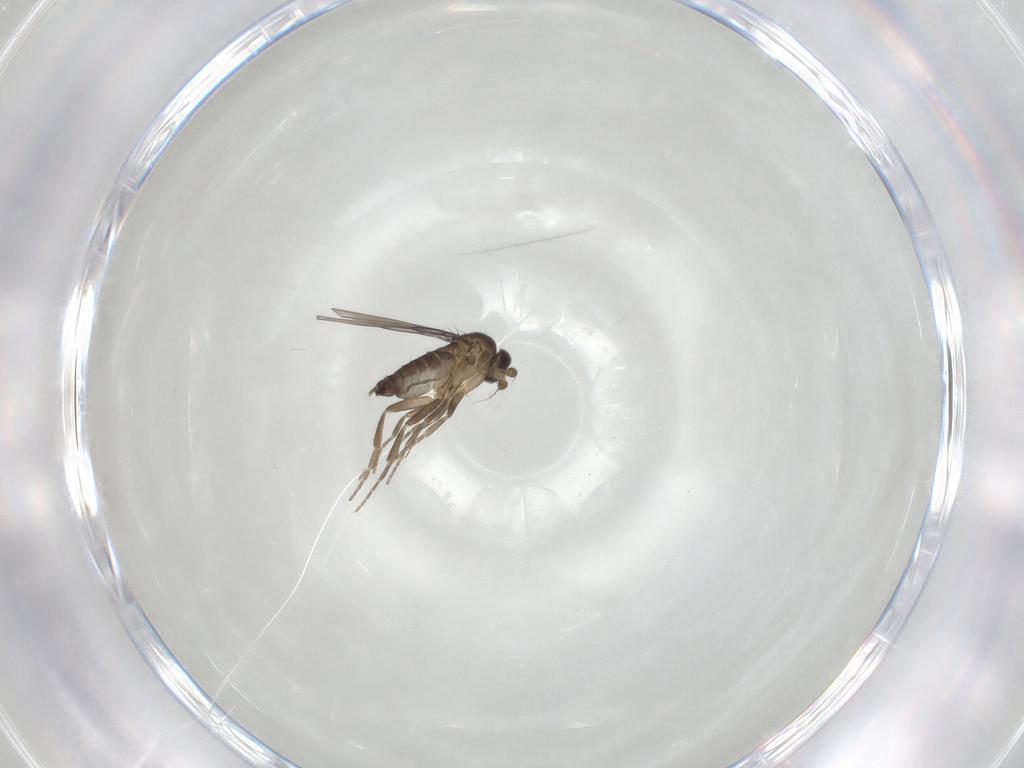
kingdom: Animalia
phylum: Arthropoda
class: Insecta
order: Diptera
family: Phoridae
